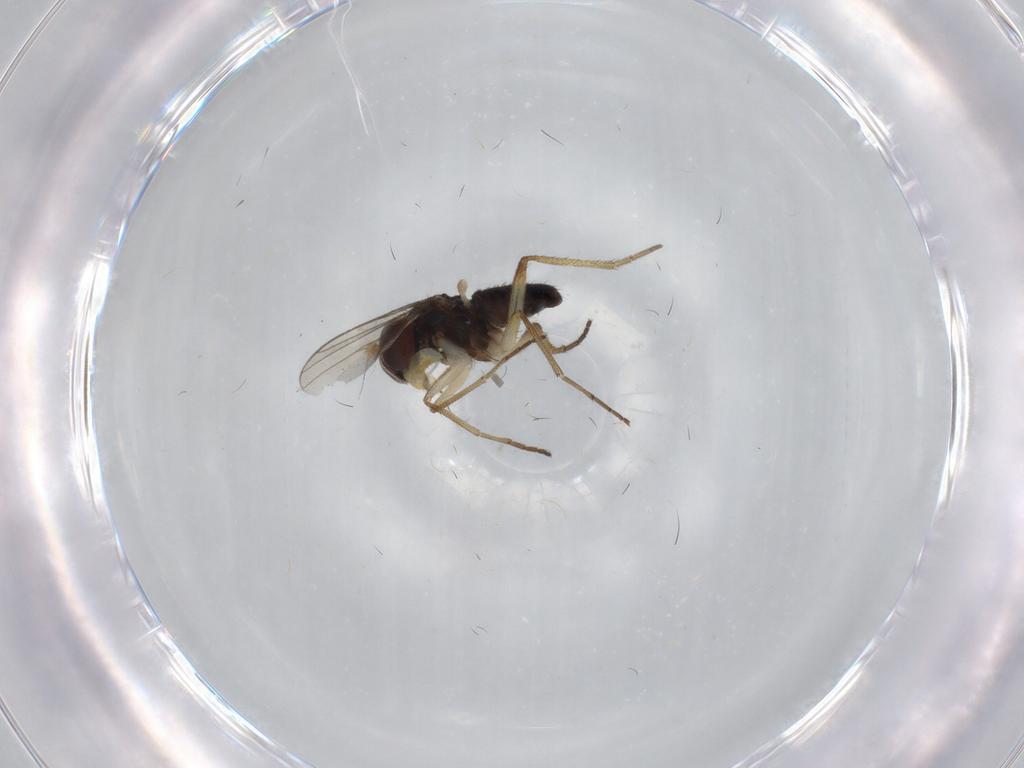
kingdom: Animalia
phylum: Arthropoda
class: Insecta
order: Diptera
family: Dolichopodidae
